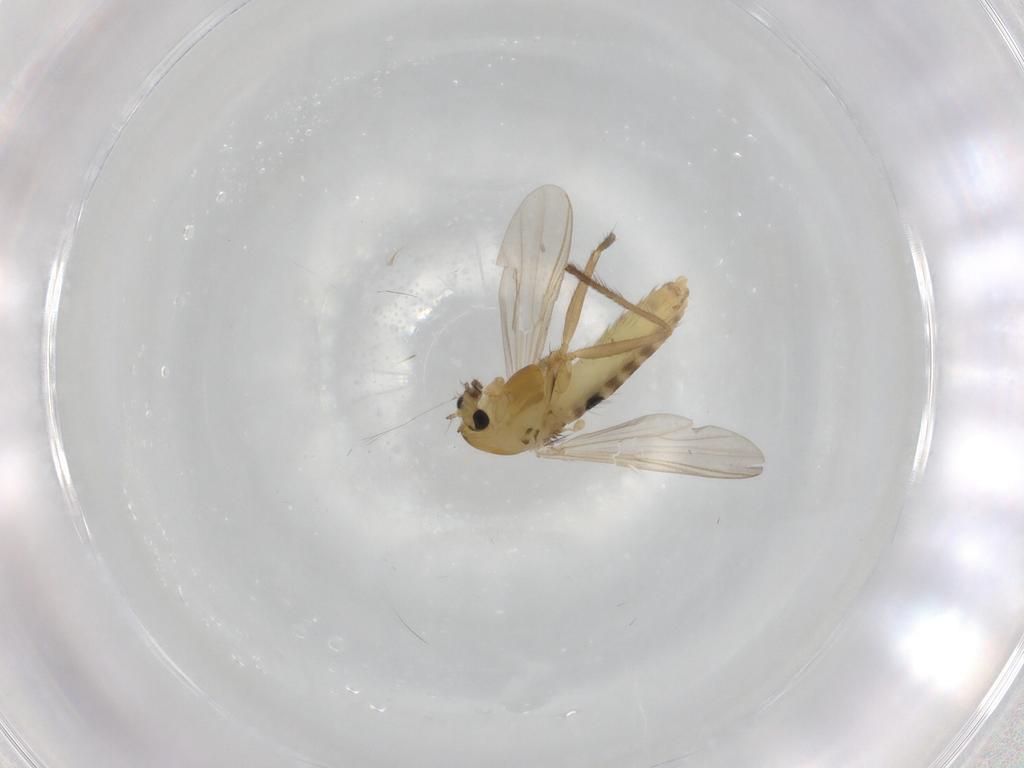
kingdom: Animalia
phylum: Arthropoda
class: Insecta
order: Diptera
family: Chironomidae
